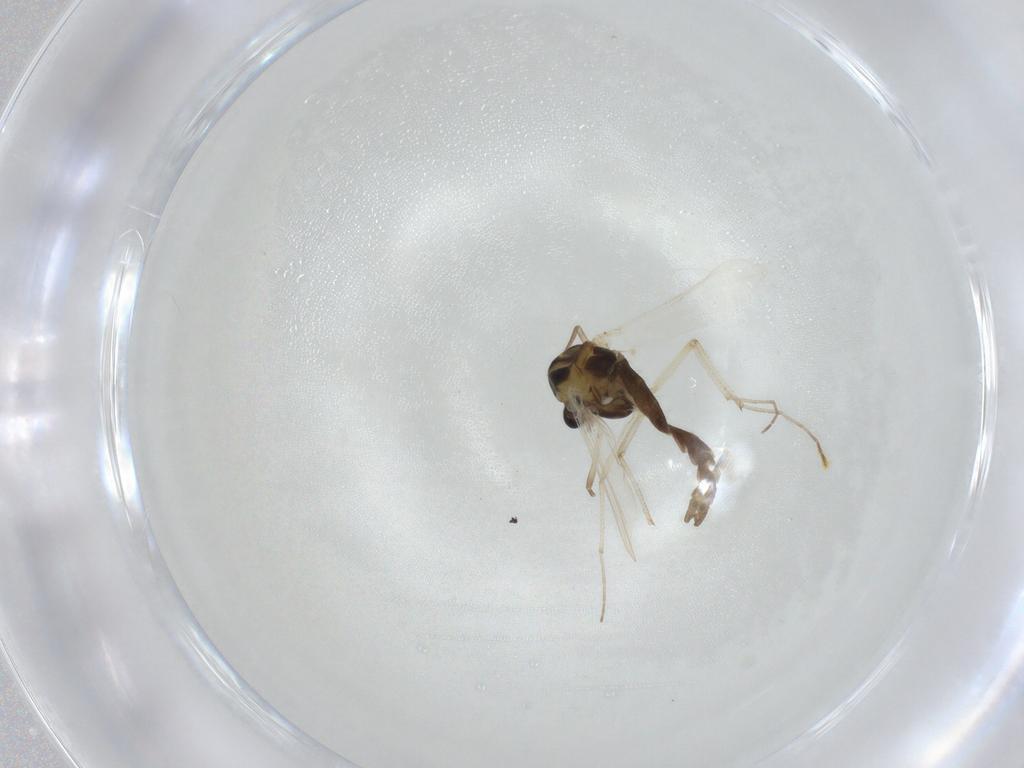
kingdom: Animalia
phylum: Arthropoda
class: Insecta
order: Diptera
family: Chironomidae
